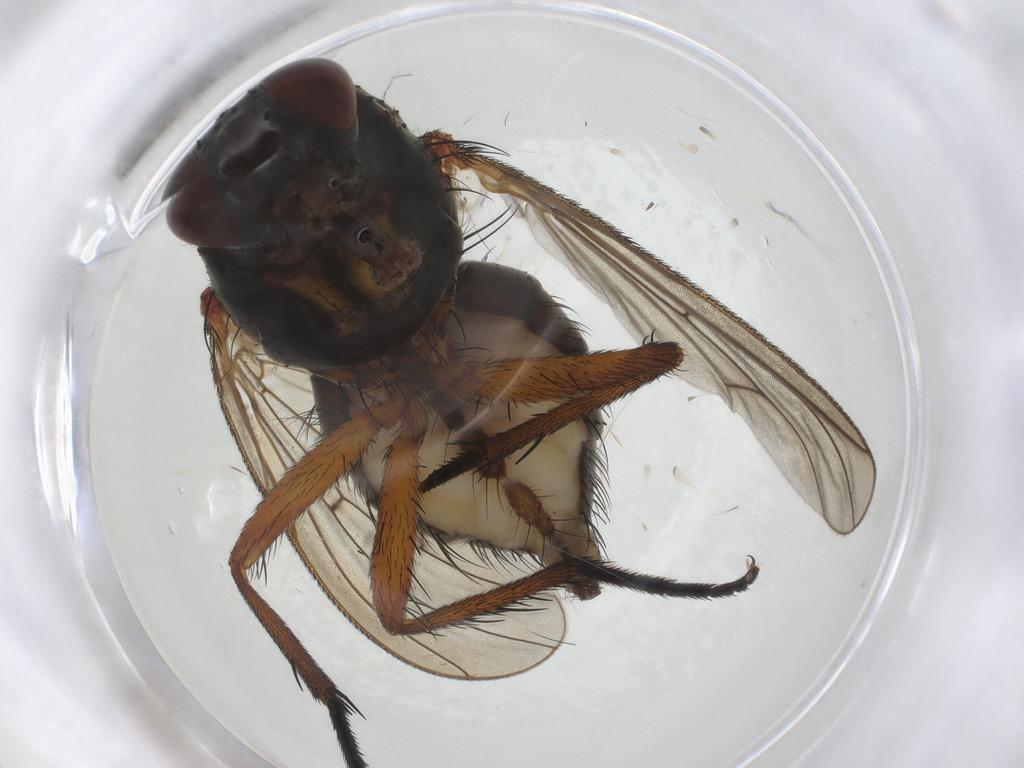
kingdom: Animalia
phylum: Arthropoda
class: Insecta
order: Diptera
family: Anthomyiidae
